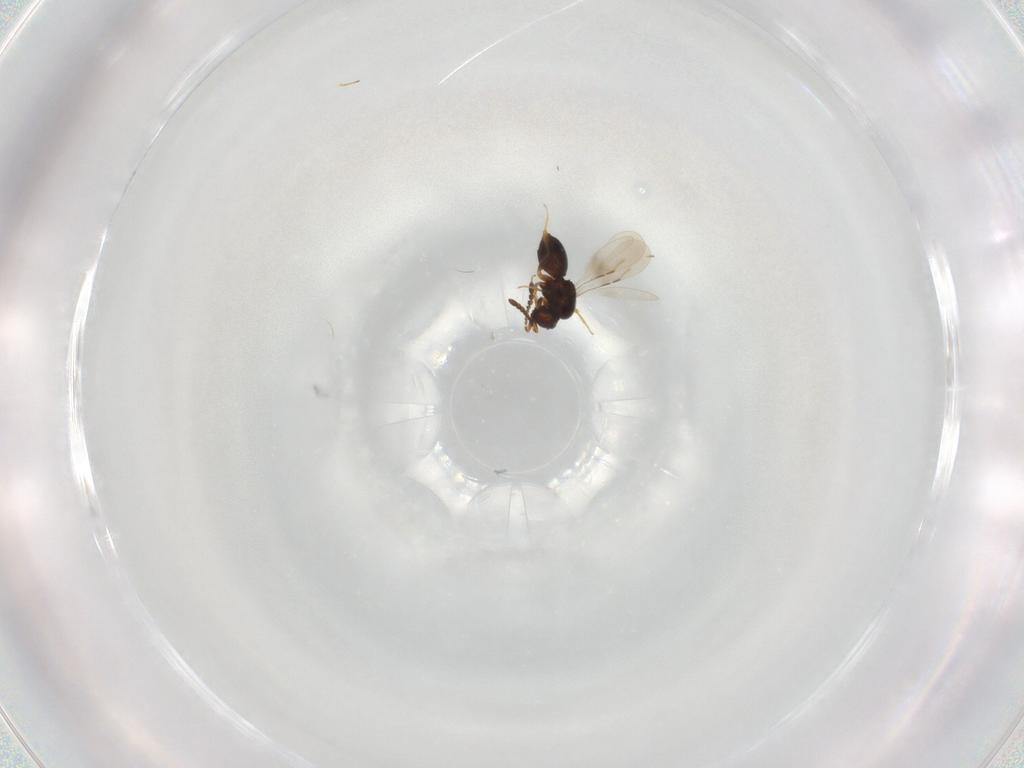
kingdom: Animalia
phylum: Arthropoda
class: Insecta
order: Hymenoptera
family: Scelionidae
